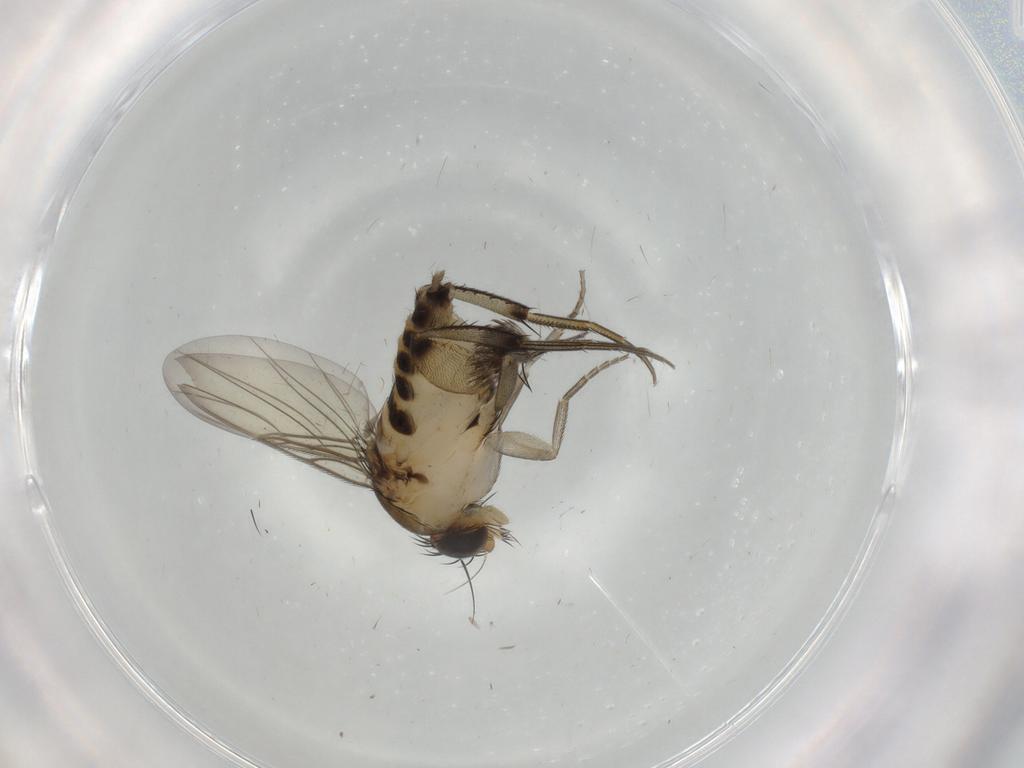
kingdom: Animalia
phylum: Arthropoda
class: Insecta
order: Diptera
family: Phoridae
